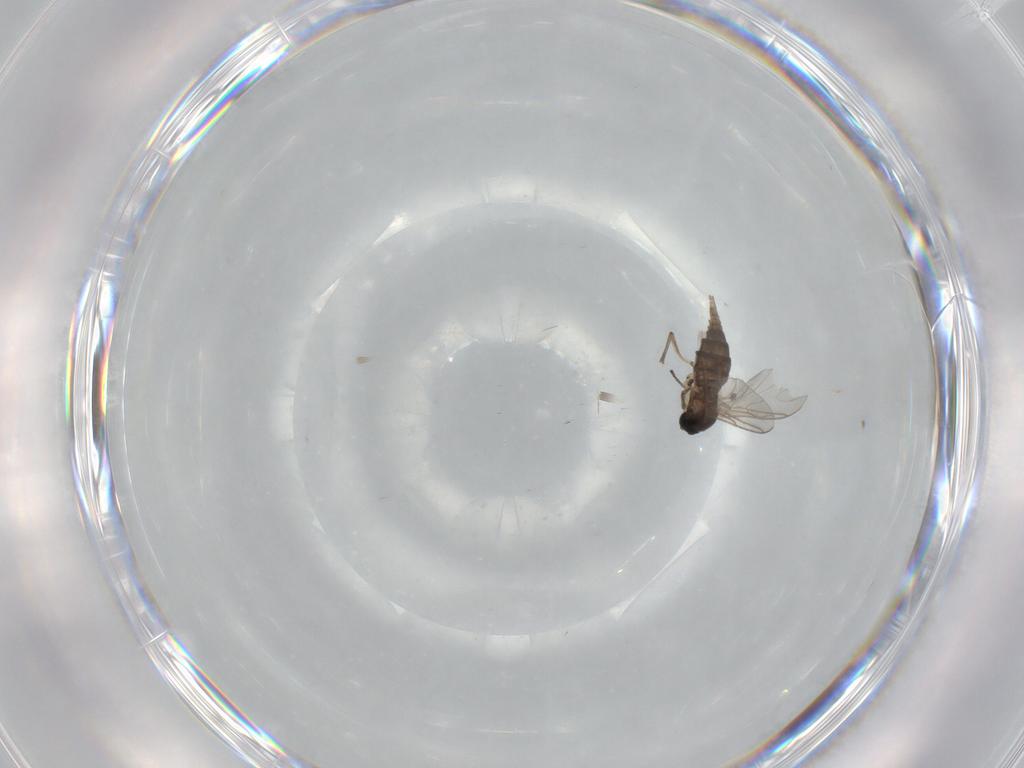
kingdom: Animalia
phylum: Arthropoda
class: Insecta
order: Diptera
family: Sciaridae
